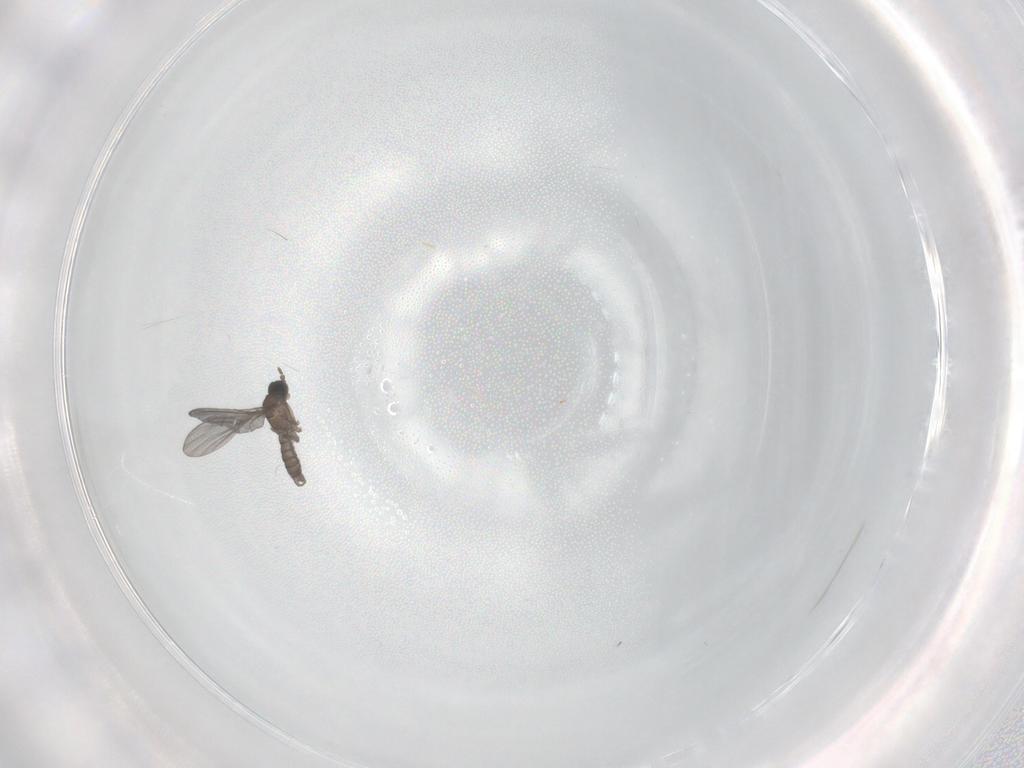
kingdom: Animalia
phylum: Arthropoda
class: Insecta
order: Diptera
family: Sciaridae
